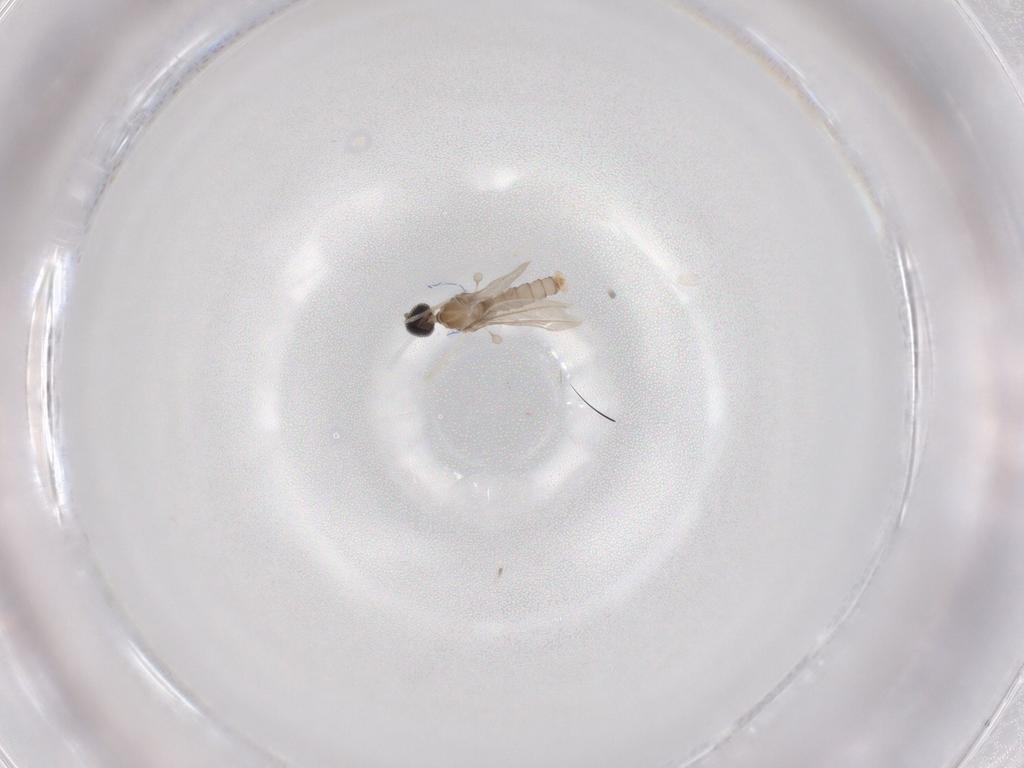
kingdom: Animalia
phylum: Arthropoda
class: Insecta
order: Diptera
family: Cecidomyiidae
